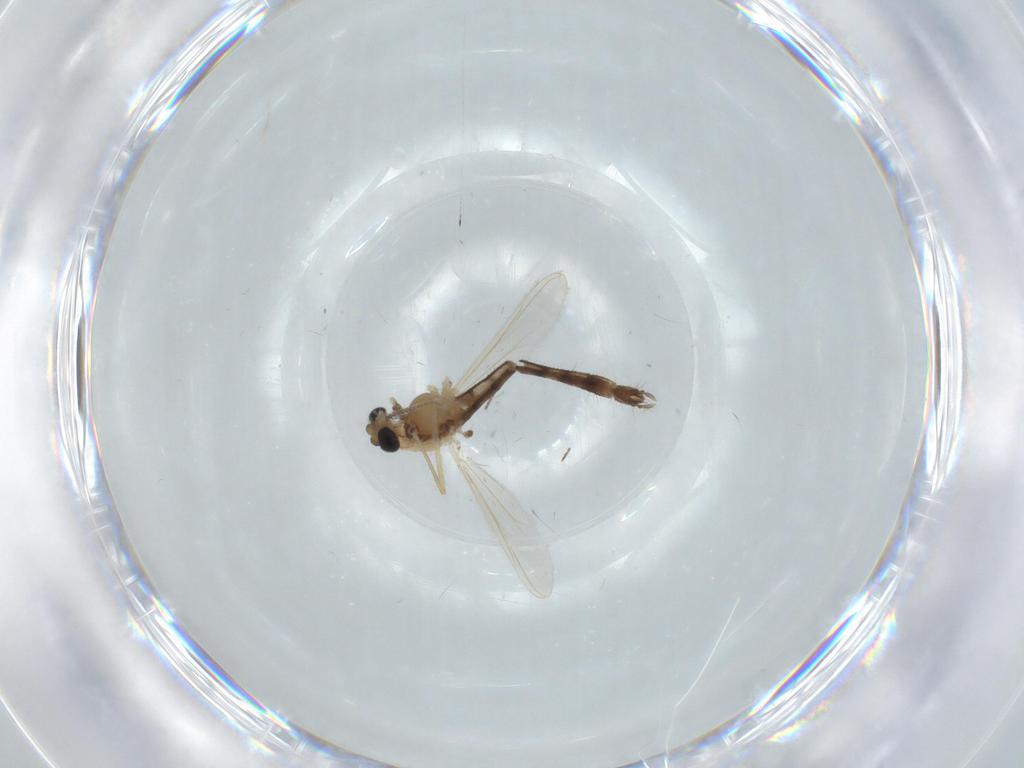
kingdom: Animalia
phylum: Arthropoda
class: Insecta
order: Diptera
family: Chironomidae
